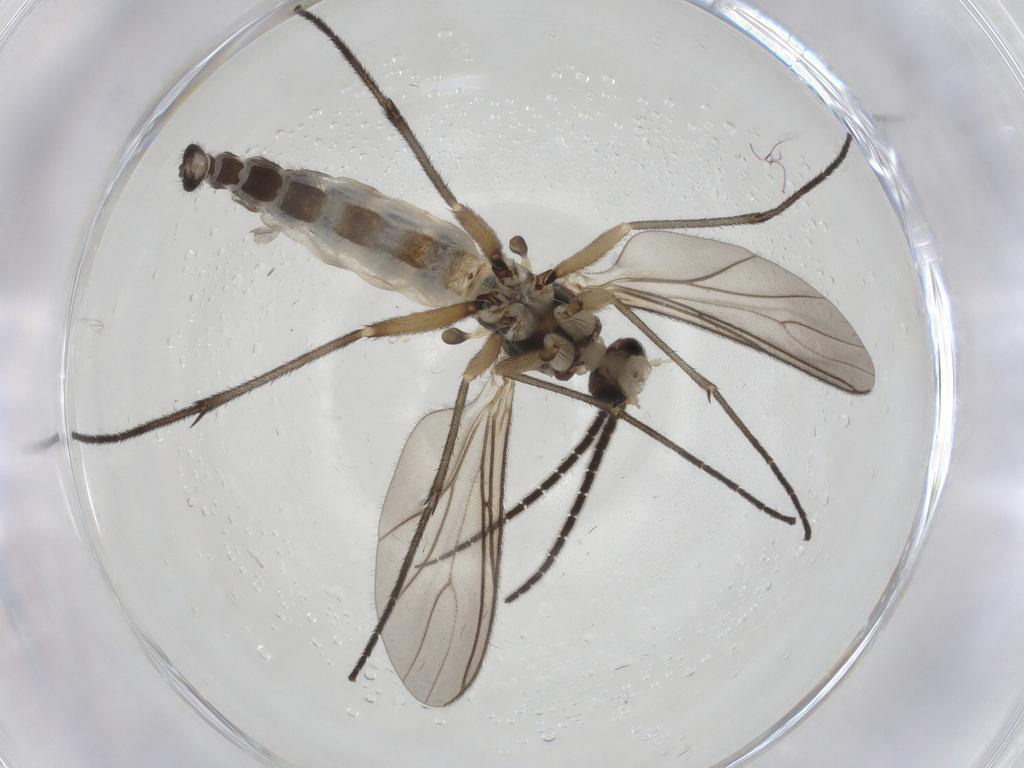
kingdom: Animalia
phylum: Arthropoda
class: Insecta
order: Diptera
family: Sciaridae
